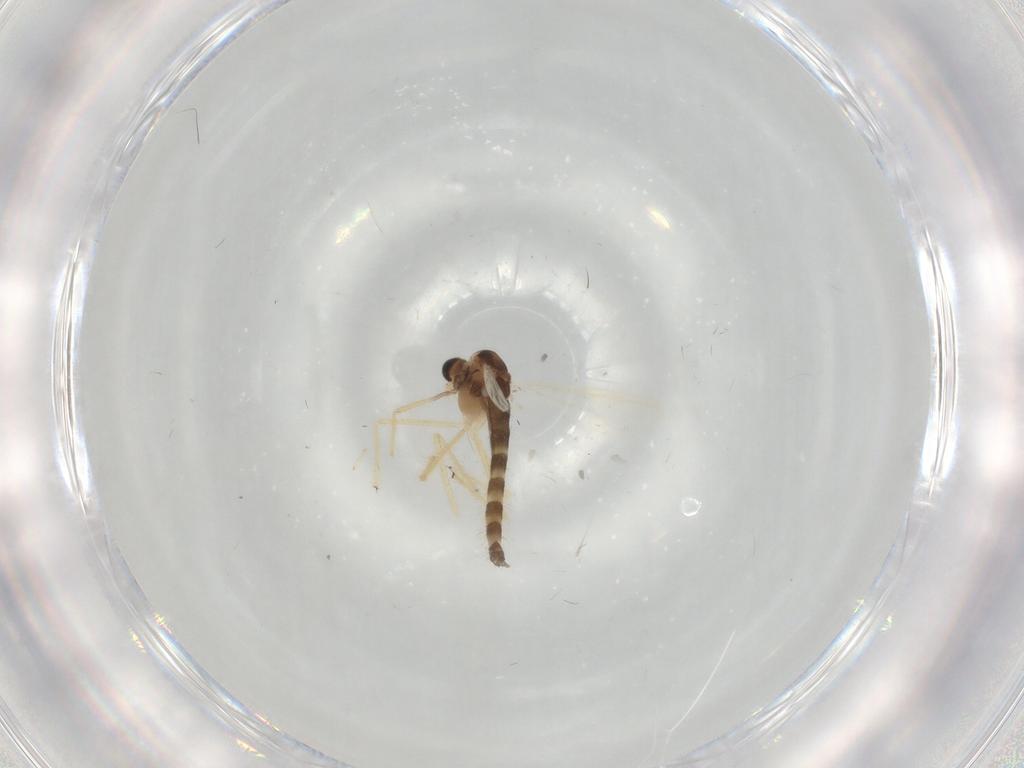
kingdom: Animalia
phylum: Arthropoda
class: Insecta
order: Diptera
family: Chironomidae
